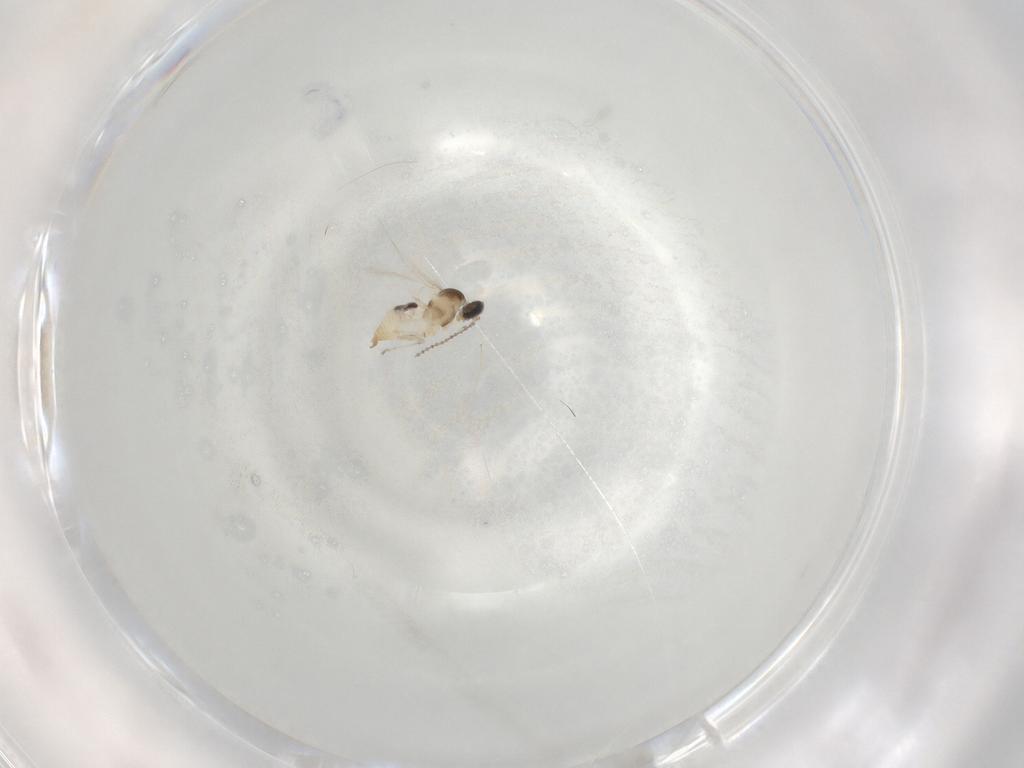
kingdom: Animalia
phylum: Arthropoda
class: Insecta
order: Diptera
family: Cecidomyiidae
